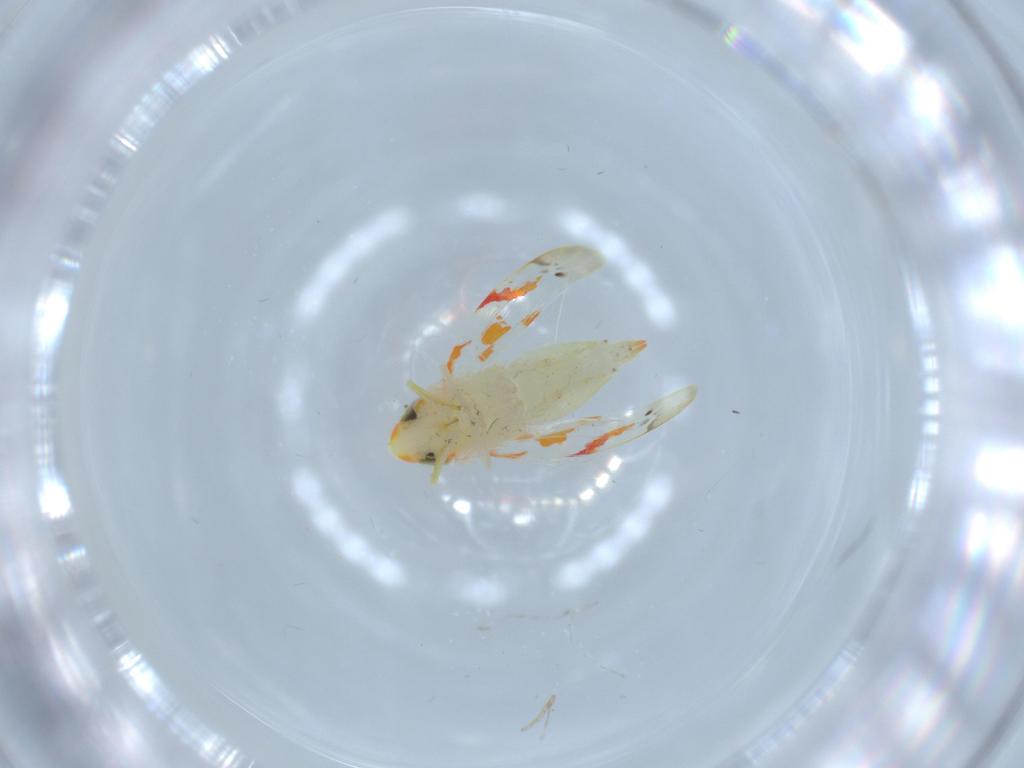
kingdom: Animalia
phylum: Arthropoda
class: Insecta
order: Hemiptera
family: Cicadellidae
